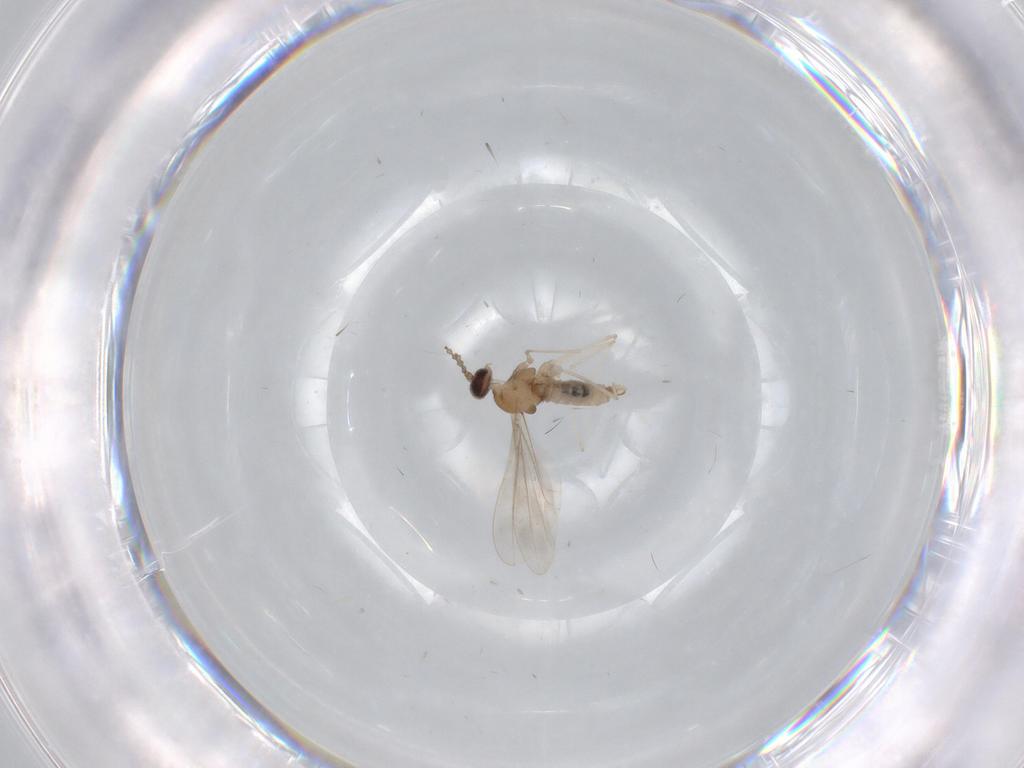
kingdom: Animalia
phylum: Arthropoda
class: Insecta
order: Diptera
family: Cecidomyiidae
